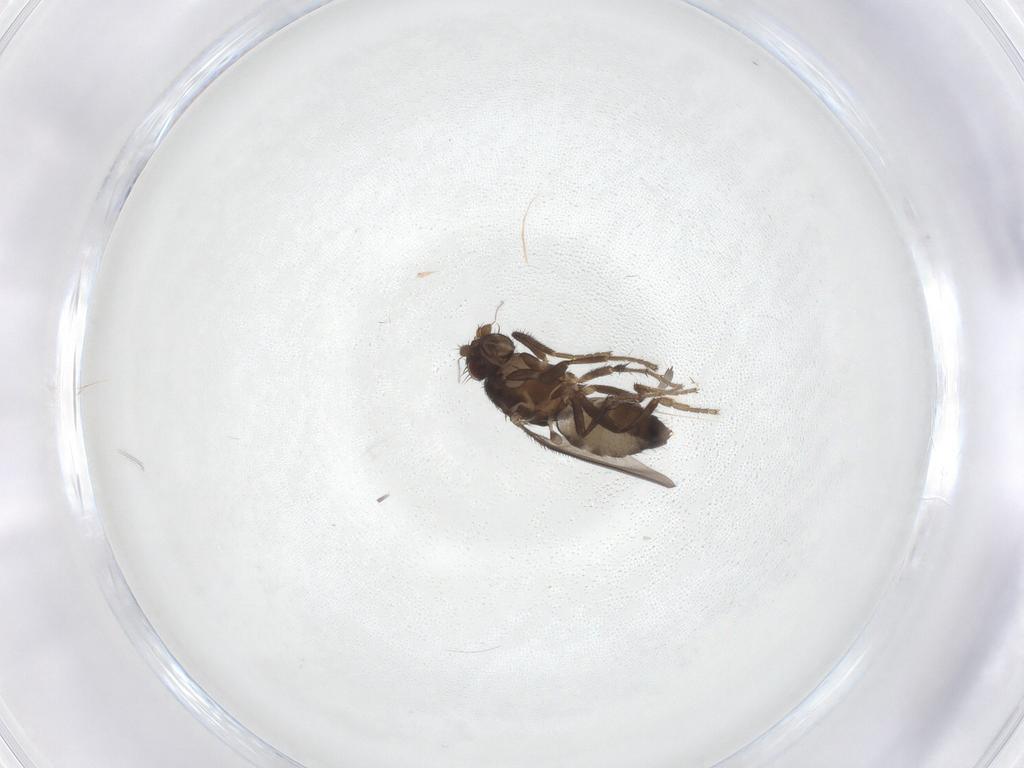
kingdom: Animalia
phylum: Arthropoda
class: Insecta
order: Diptera
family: Sphaeroceridae
